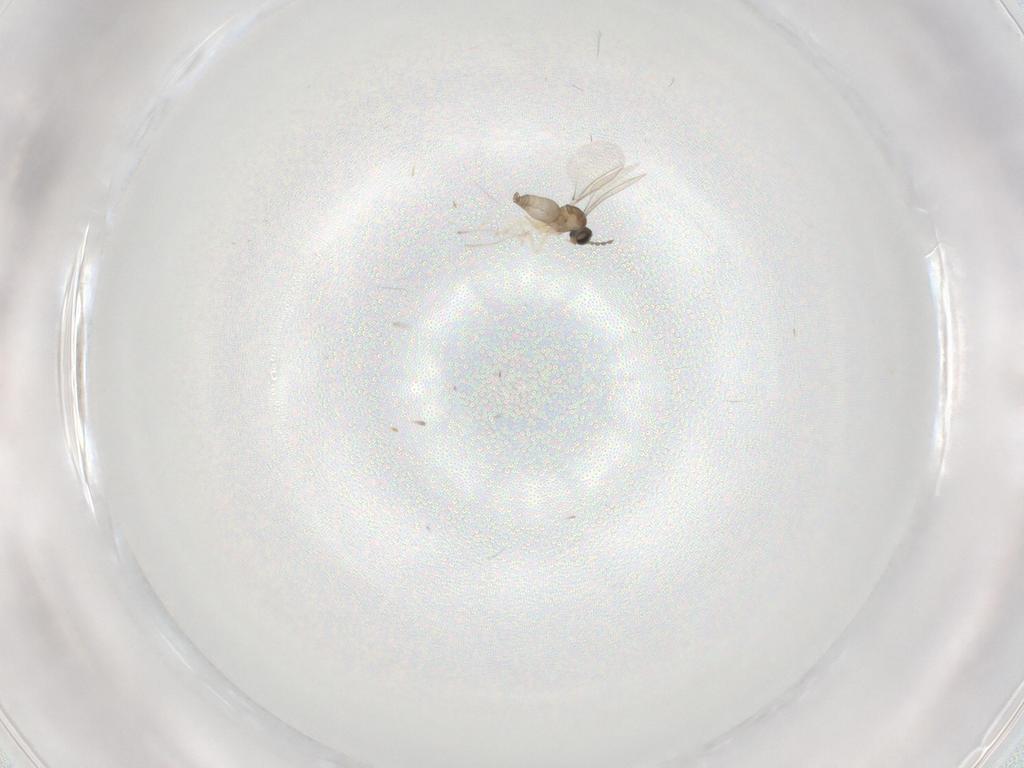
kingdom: Animalia
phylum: Arthropoda
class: Insecta
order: Diptera
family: Cecidomyiidae
